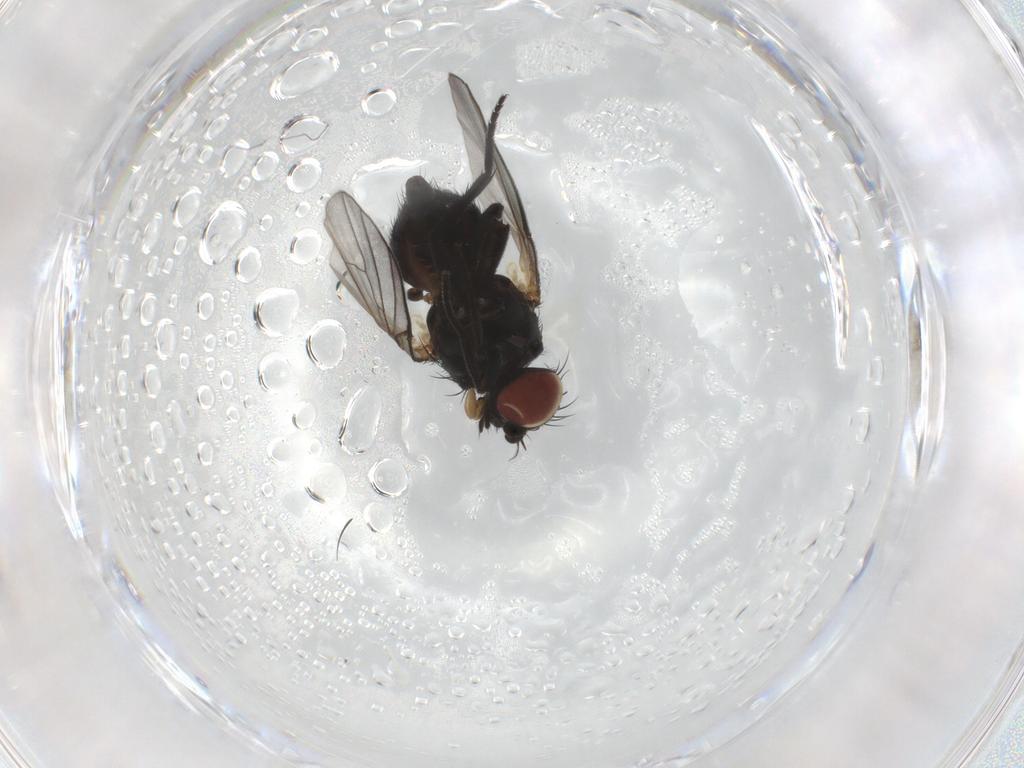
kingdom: Animalia
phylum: Arthropoda
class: Insecta
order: Diptera
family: Agromyzidae
